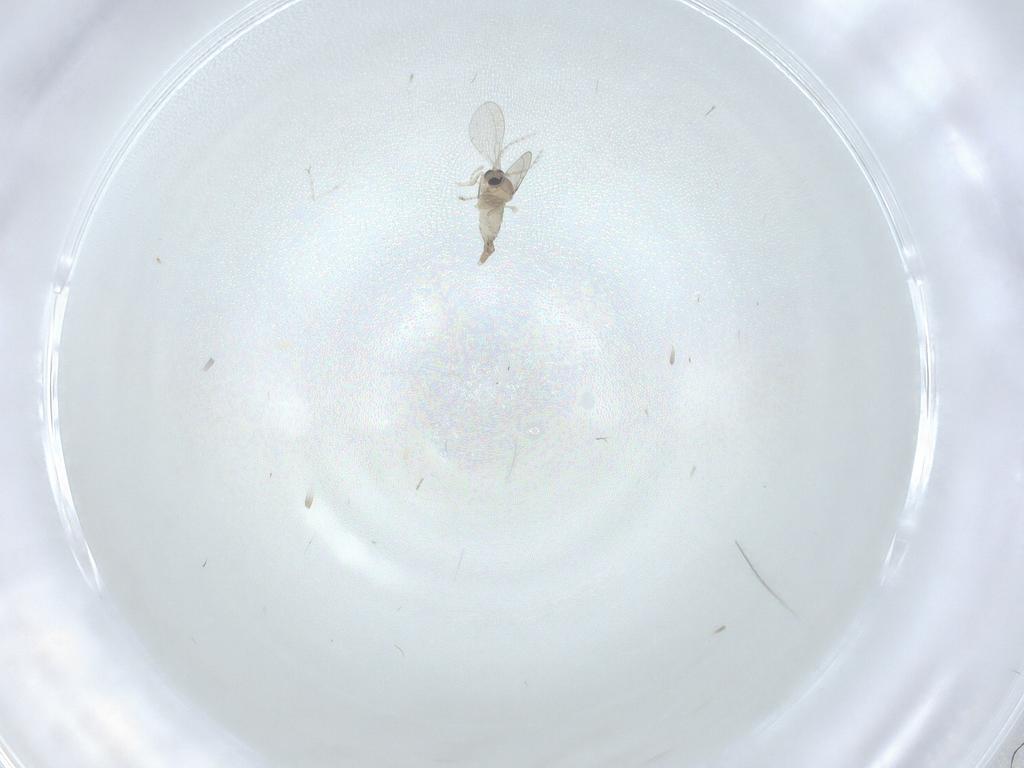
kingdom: Animalia
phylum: Arthropoda
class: Insecta
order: Diptera
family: Cecidomyiidae
